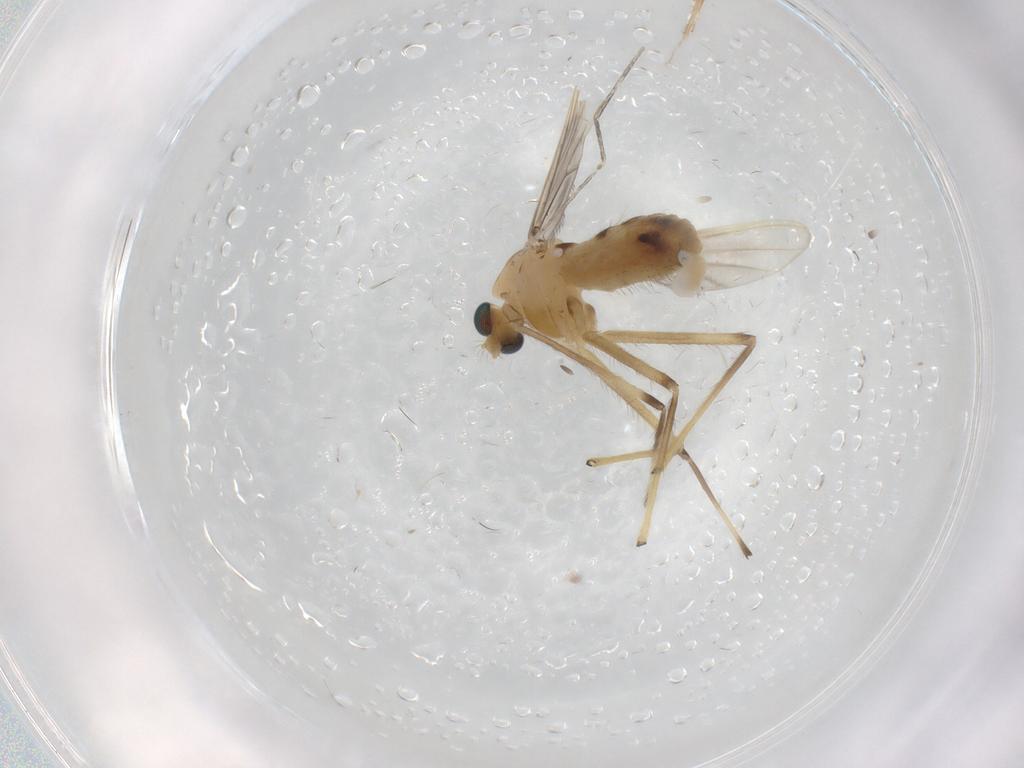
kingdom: Animalia
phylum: Arthropoda
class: Insecta
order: Diptera
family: Chironomidae
